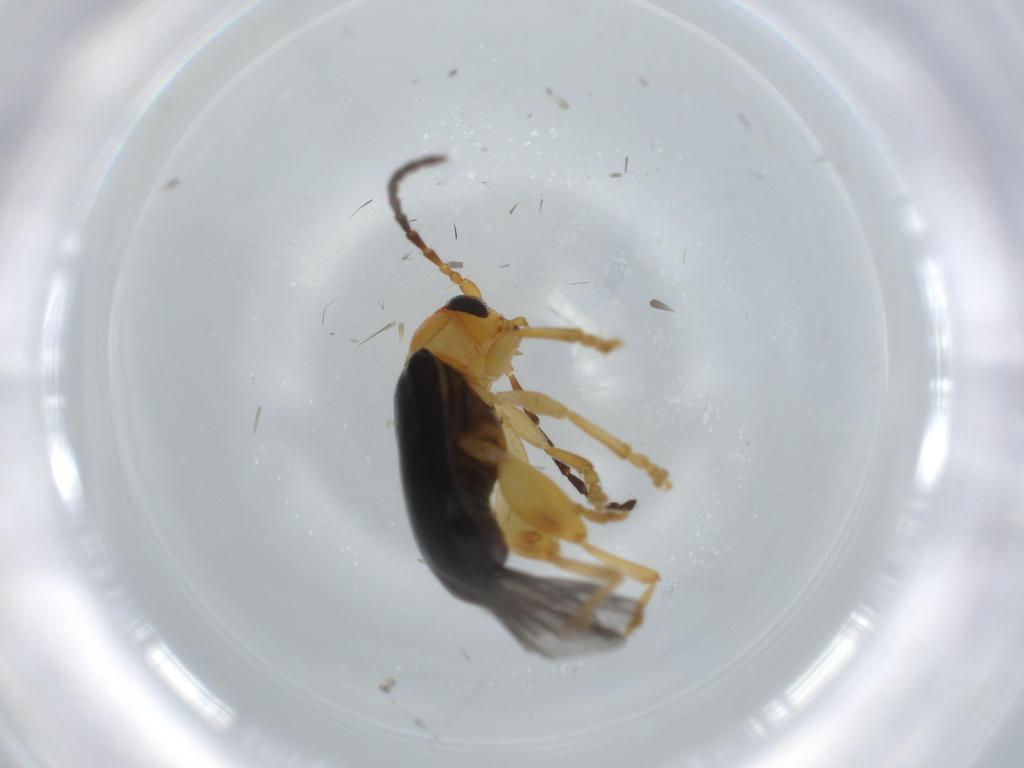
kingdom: Animalia
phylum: Arthropoda
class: Insecta
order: Coleoptera
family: Chrysomelidae
